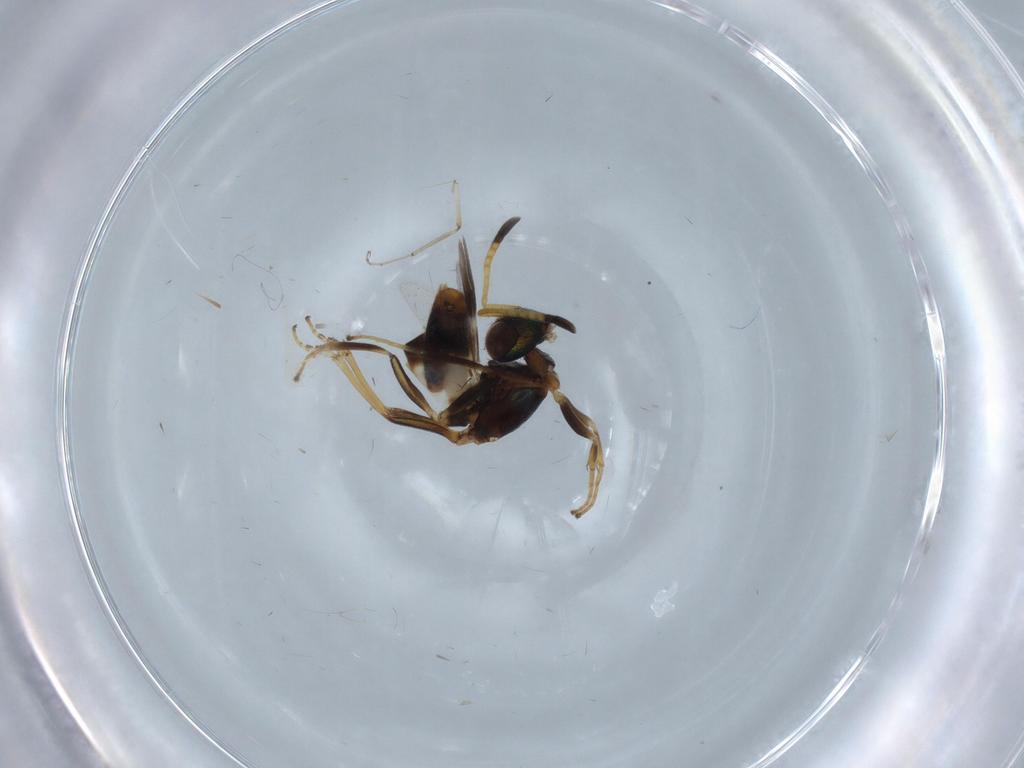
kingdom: Animalia
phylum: Arthropoda
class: Insecta
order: Hymenoptera
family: Eupelmidae
